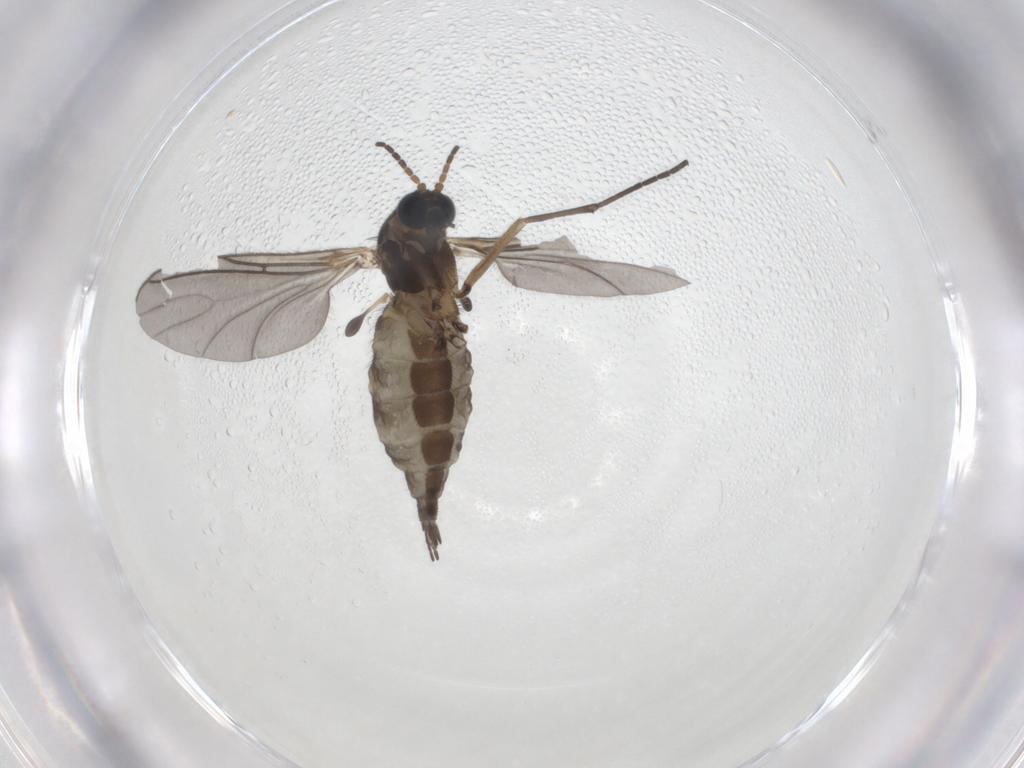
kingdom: Animalia
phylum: Arthropoda
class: Insecta
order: Diptera
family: Sciaridae
